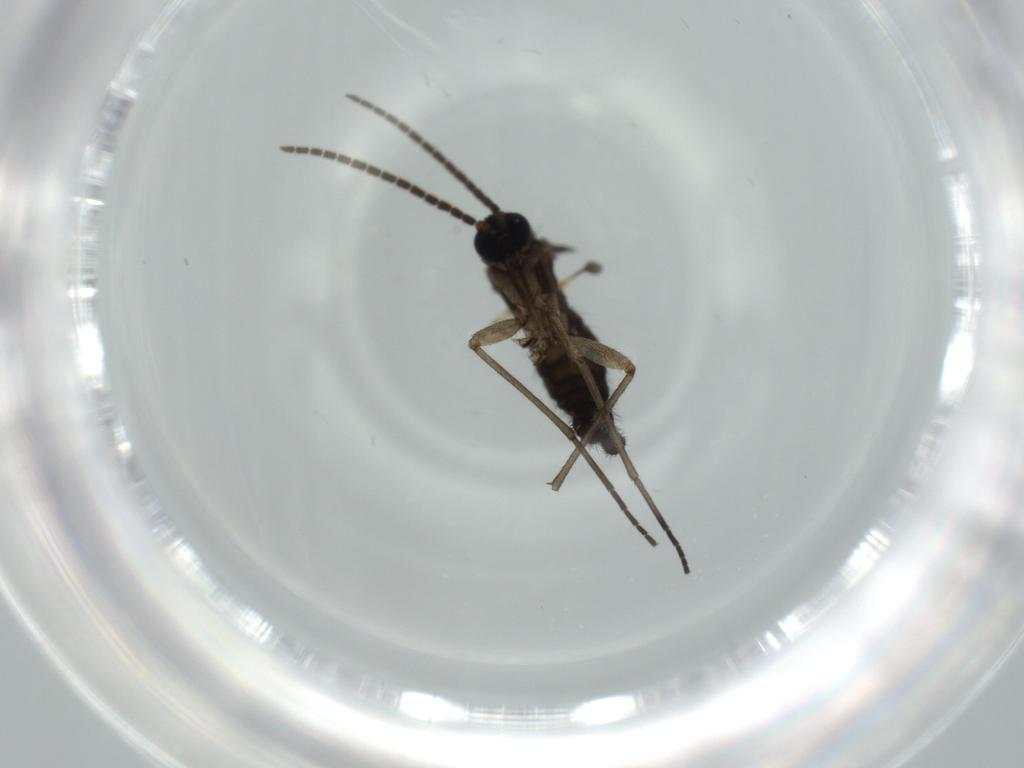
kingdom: Animalia
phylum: Arthropoda
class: Insecta
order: Diptera
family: Sciaridae
